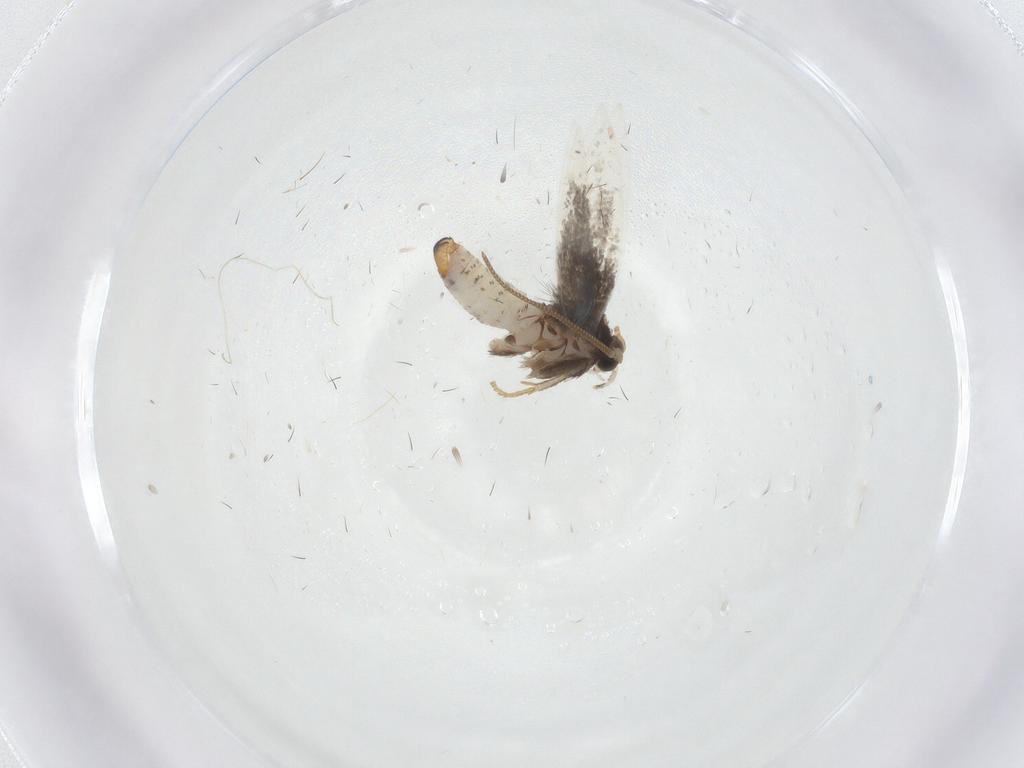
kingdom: Animalia
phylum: Arthropoda
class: Insecta
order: Lepidoptera
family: Nepticulidae
